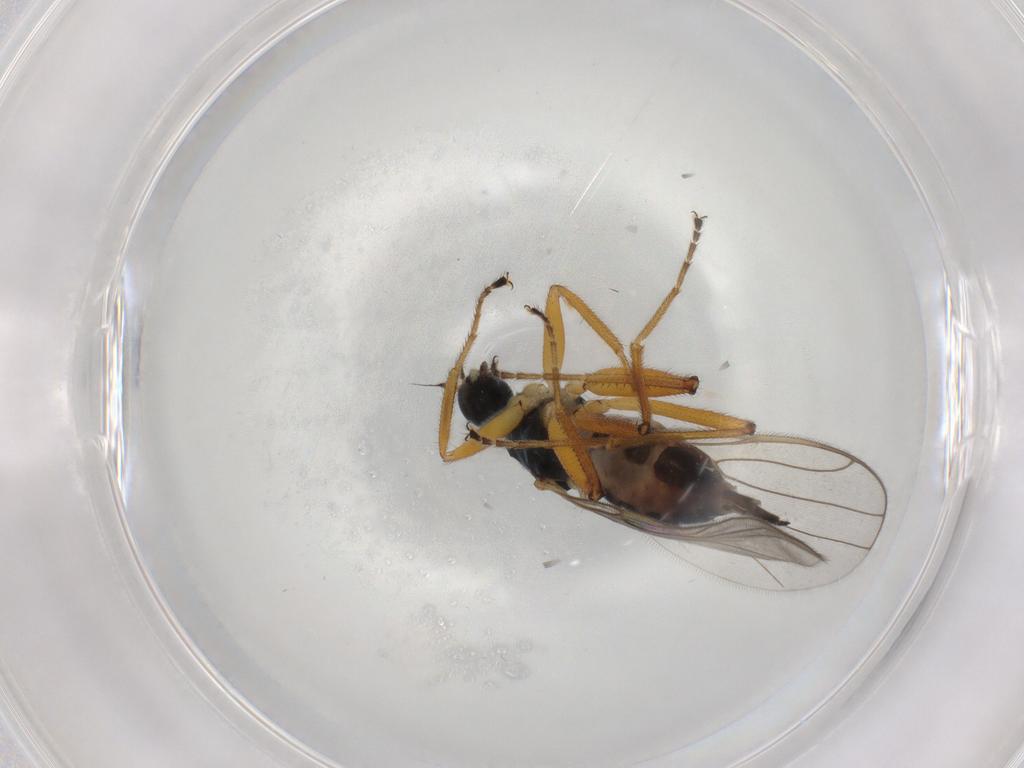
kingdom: Animalia
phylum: Arthropoda
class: Insecta
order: Diptera
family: Hybotidae
